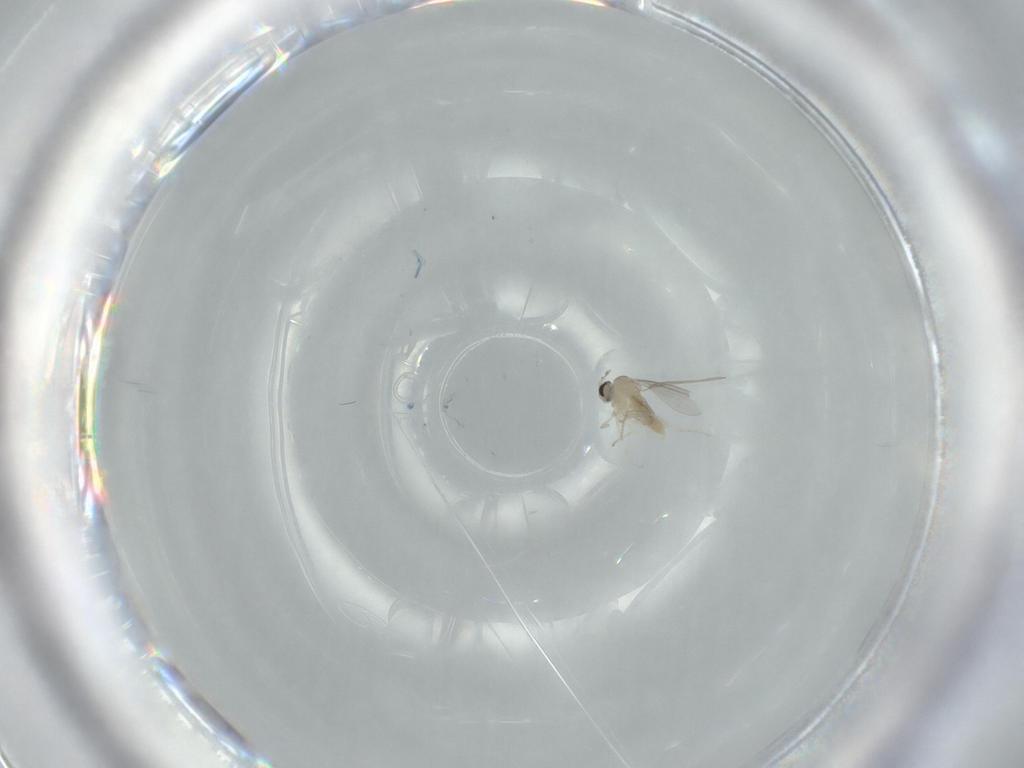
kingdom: Animalia
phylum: Arthropoda
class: Insecta
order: Diptera
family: Cecidomyiidae
